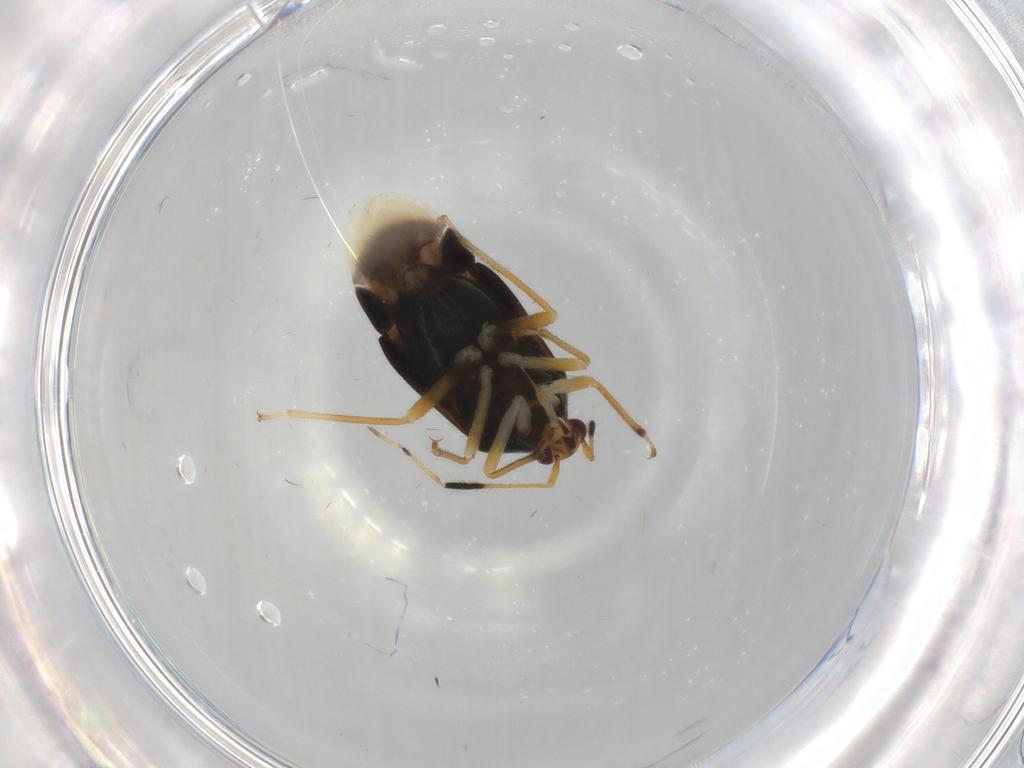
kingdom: Animalia
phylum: Arthropoda
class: Insecta
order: Hemiptera
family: Miridae
